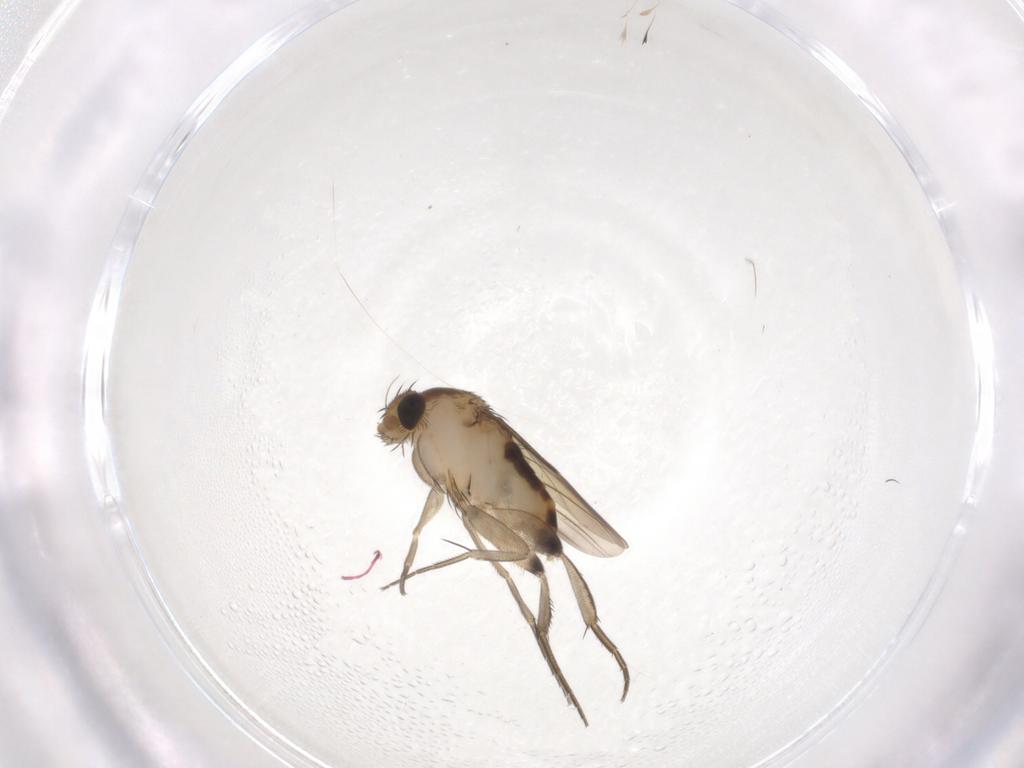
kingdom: Animalia
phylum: Arthropoda
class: Insecta
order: Diptera
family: Phoridae
